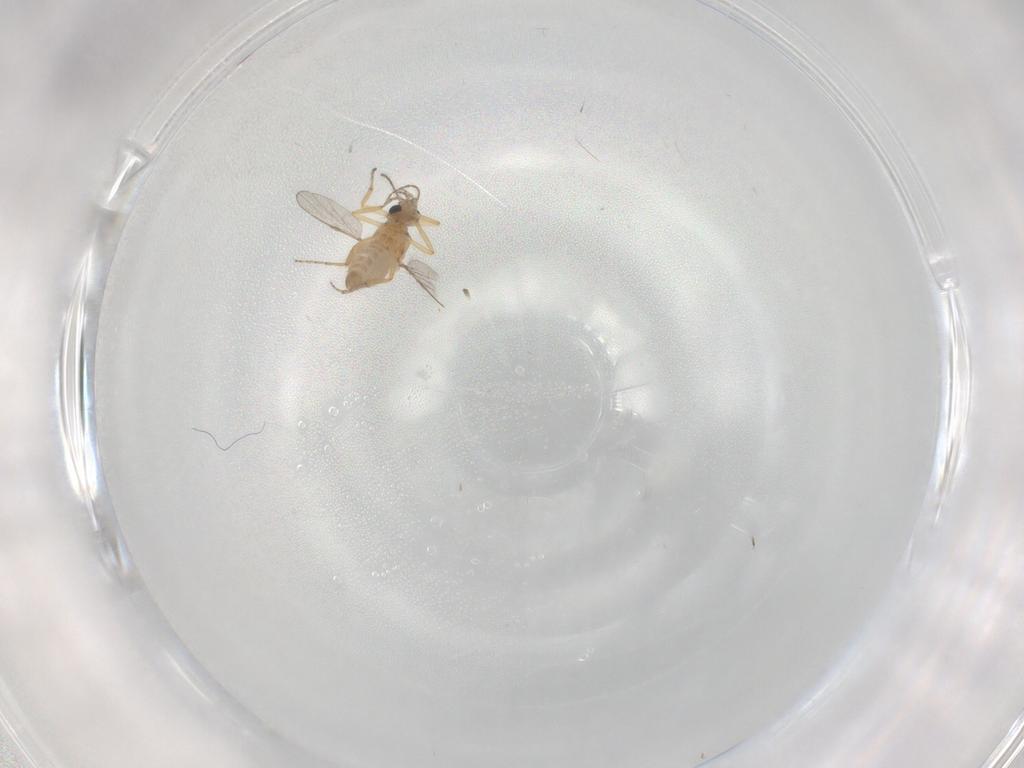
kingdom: Animalia
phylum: Arthropoda
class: Insecta
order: Diptera
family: Ceratopogonidae
